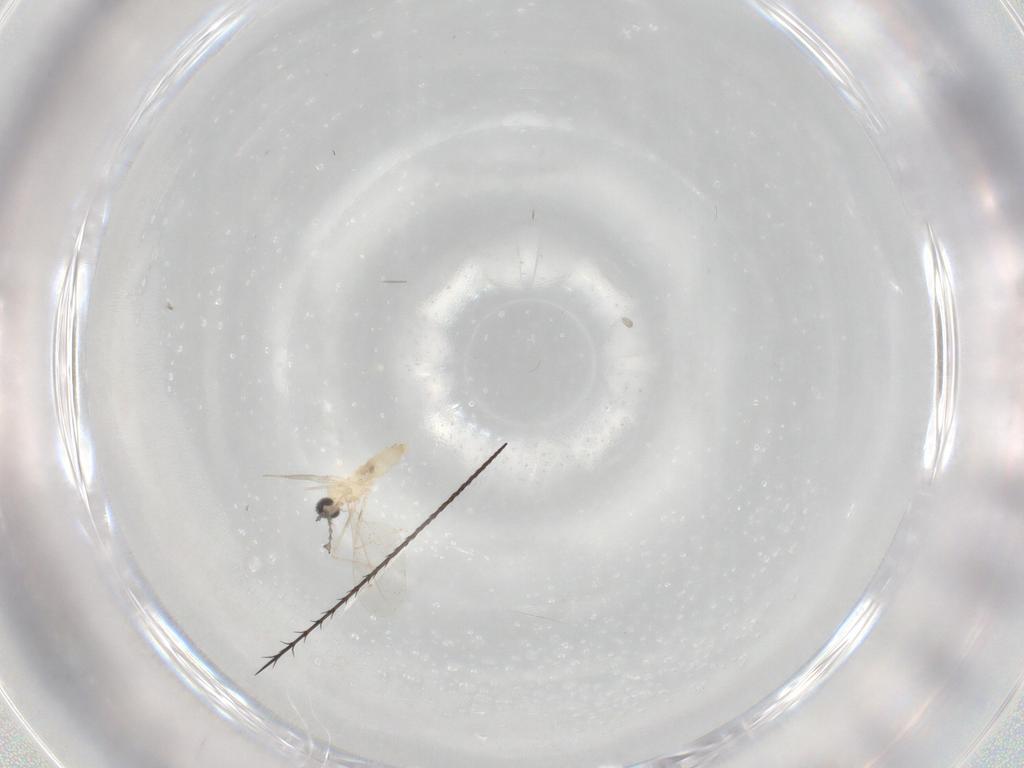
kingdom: Animalia
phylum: Arthropoda
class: Insecta
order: Diptera
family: Cecidomyiidae
